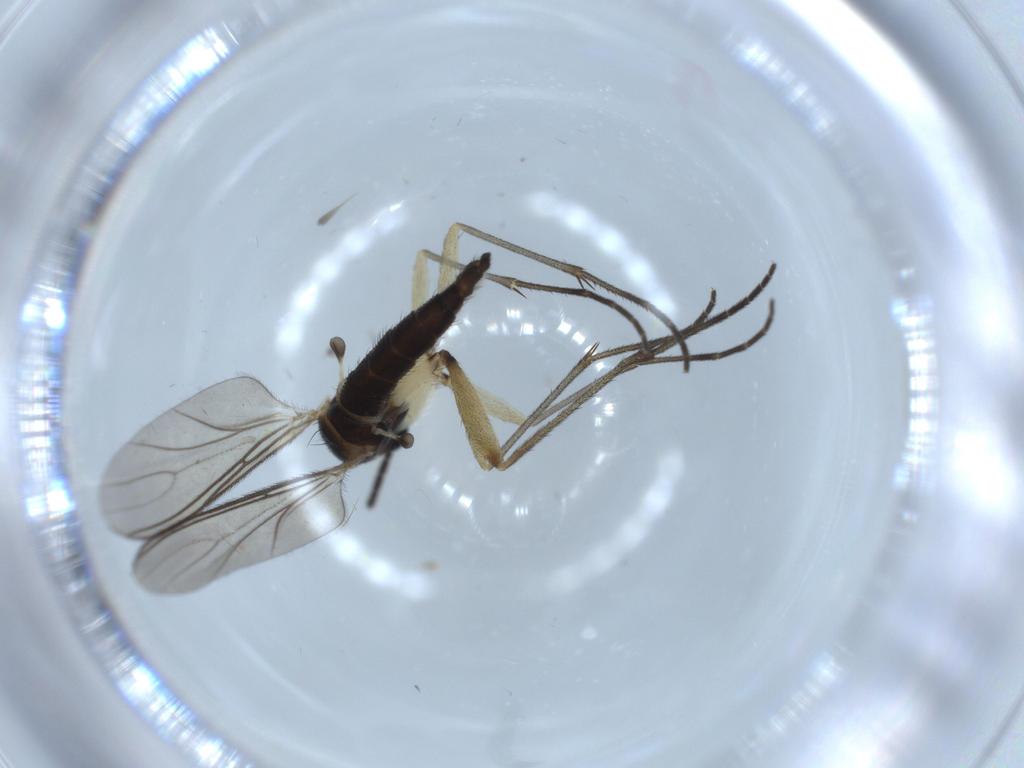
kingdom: Animalia
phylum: Arthropoda
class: Insecta
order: Diptera
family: Sciaridae
